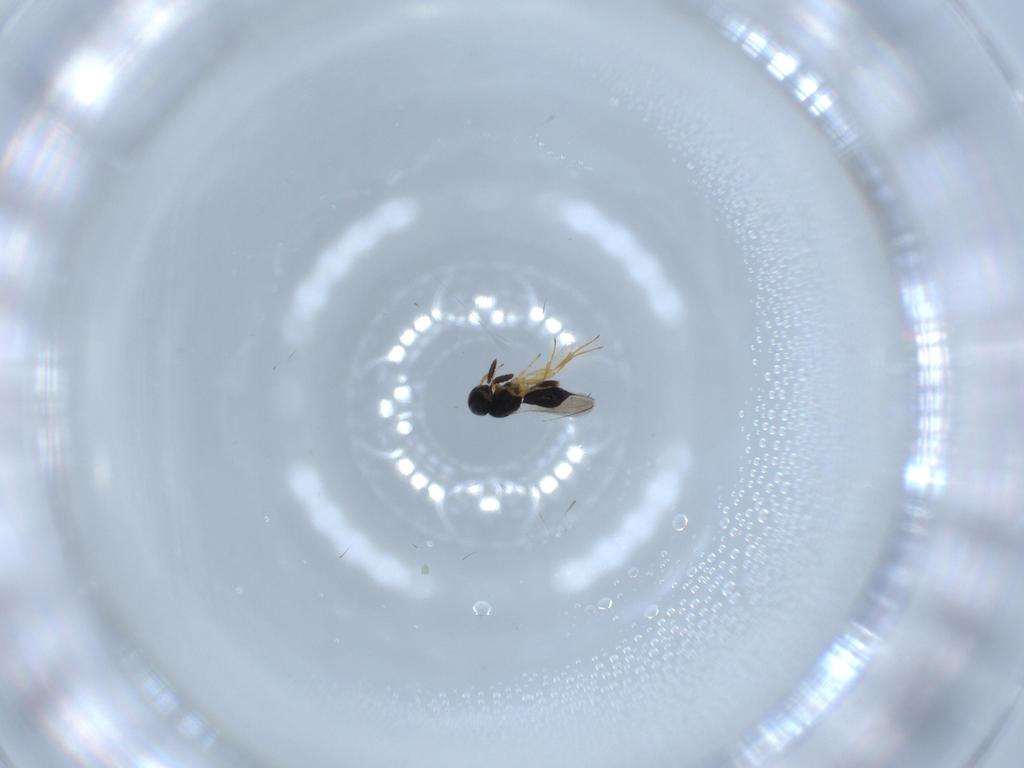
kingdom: Animalia
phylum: Arthropoda
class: Insecta
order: Hymenoptera
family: Scelionidae
